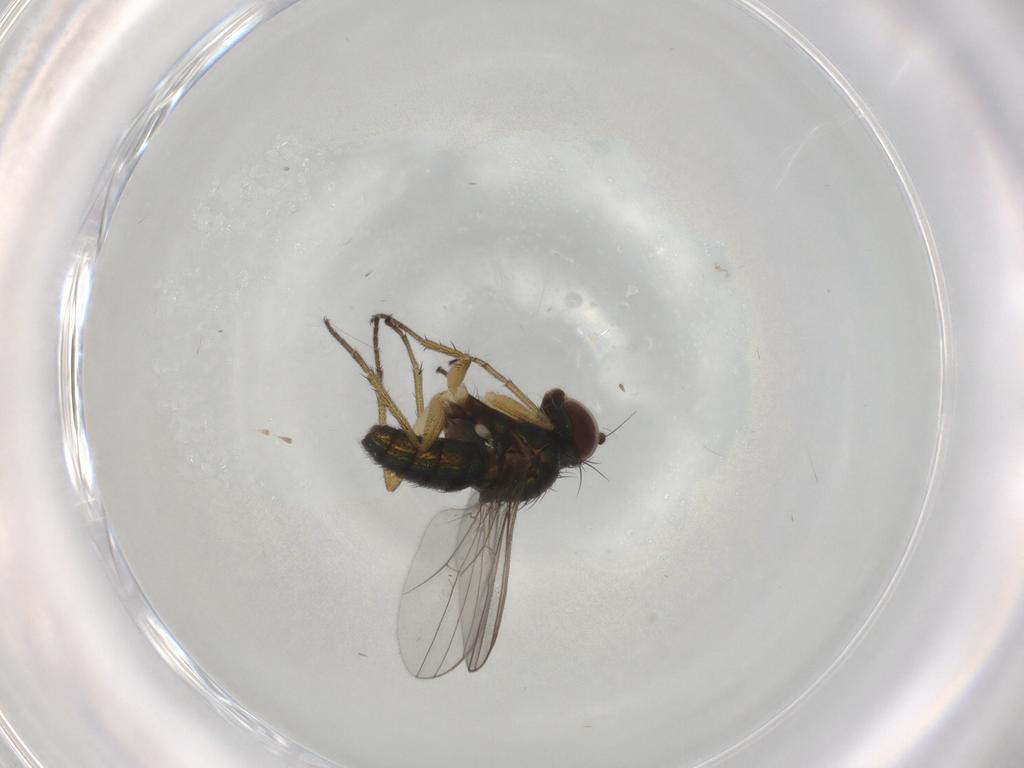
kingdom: Animalia
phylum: Arthropoda
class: Insecta
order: Diptera
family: Dolichopodidae
